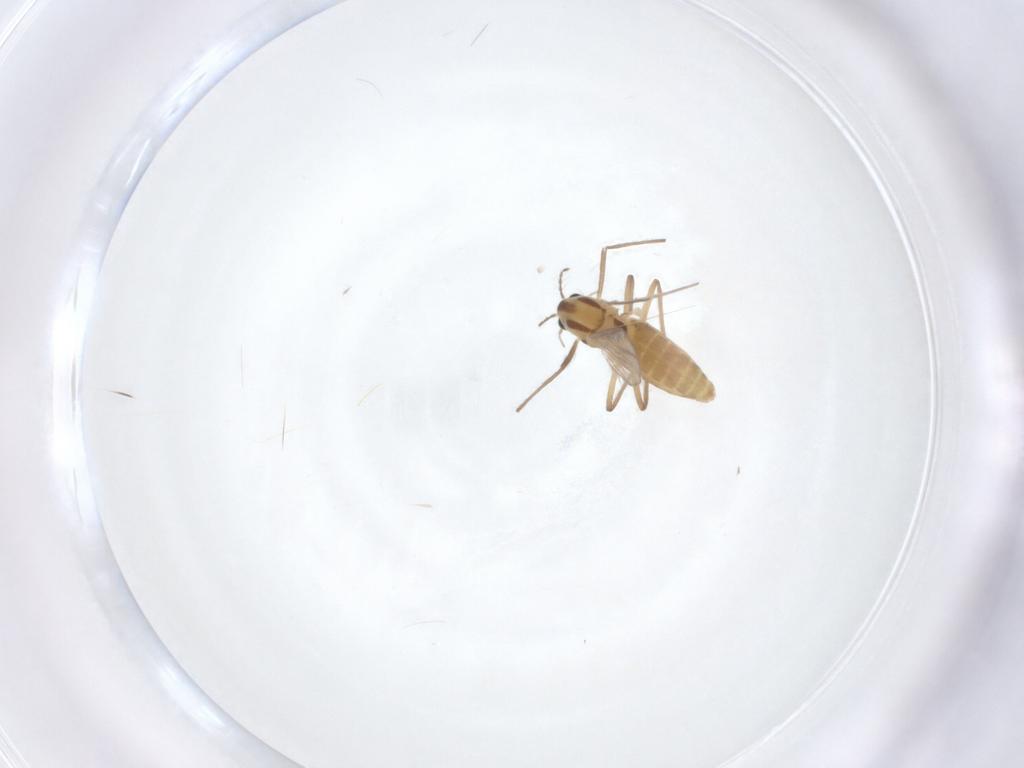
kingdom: Animalia
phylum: Arthropoda
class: Insecta
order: Diptera
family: Chironomidae
